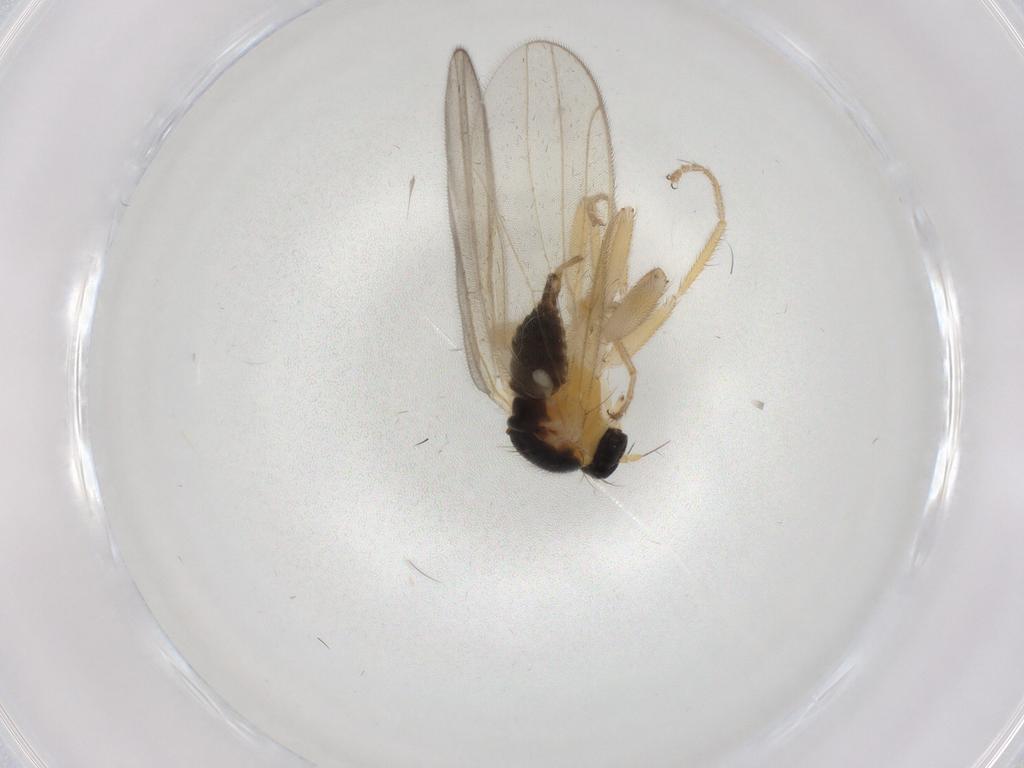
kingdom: Animalia
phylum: Arthropoda
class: Insecta
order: Diptera
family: Hybotidae
